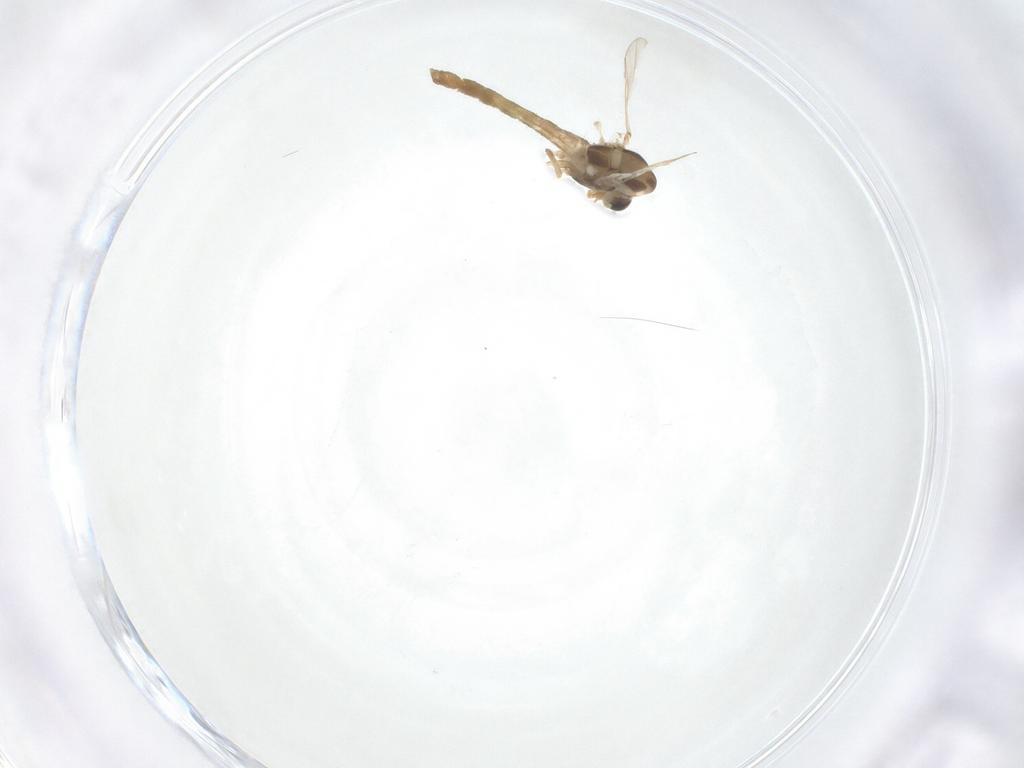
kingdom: Animalia
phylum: Arthropoda
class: Insecta
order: Diptera
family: Chironomidae
